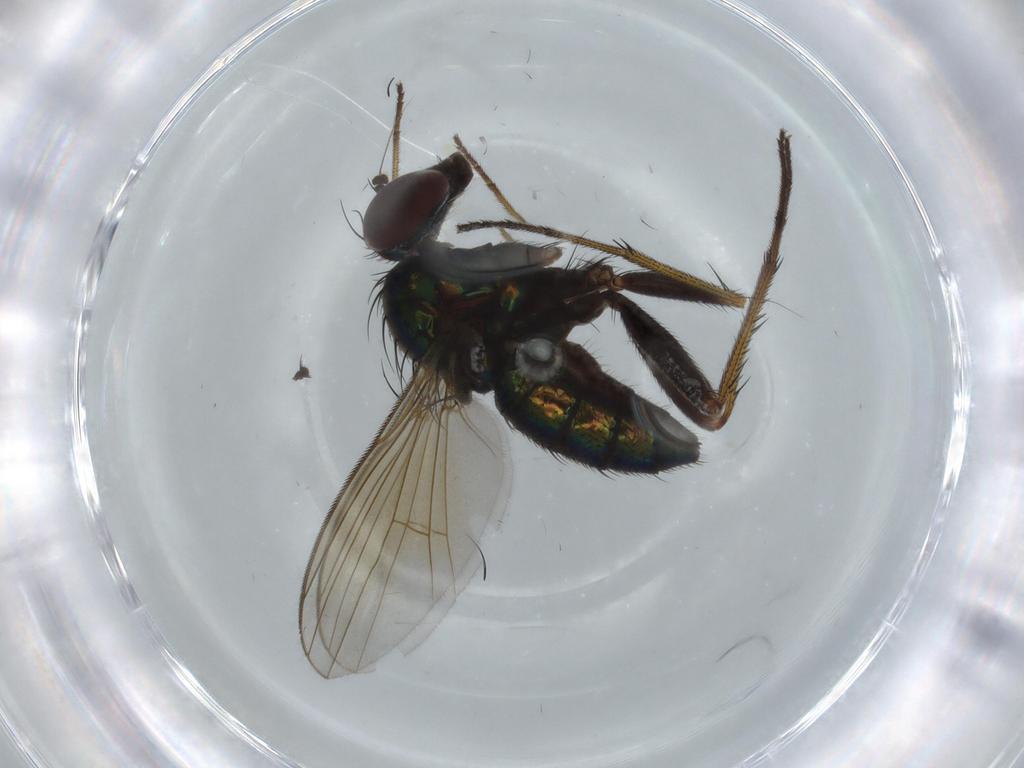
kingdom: Animalia
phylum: Arthropoda
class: Insecta
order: Diptera
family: Dolichopodidae
